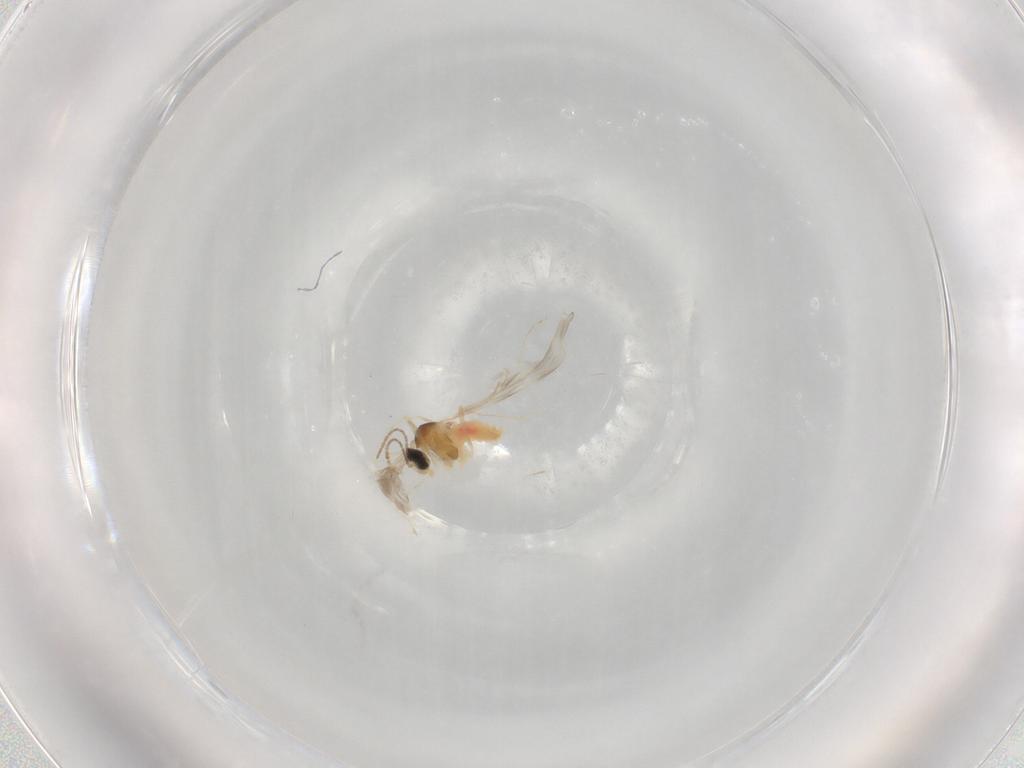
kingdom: Animalia
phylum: Arthropoda
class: Insecta
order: Diptera
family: Cecidomyiidae
